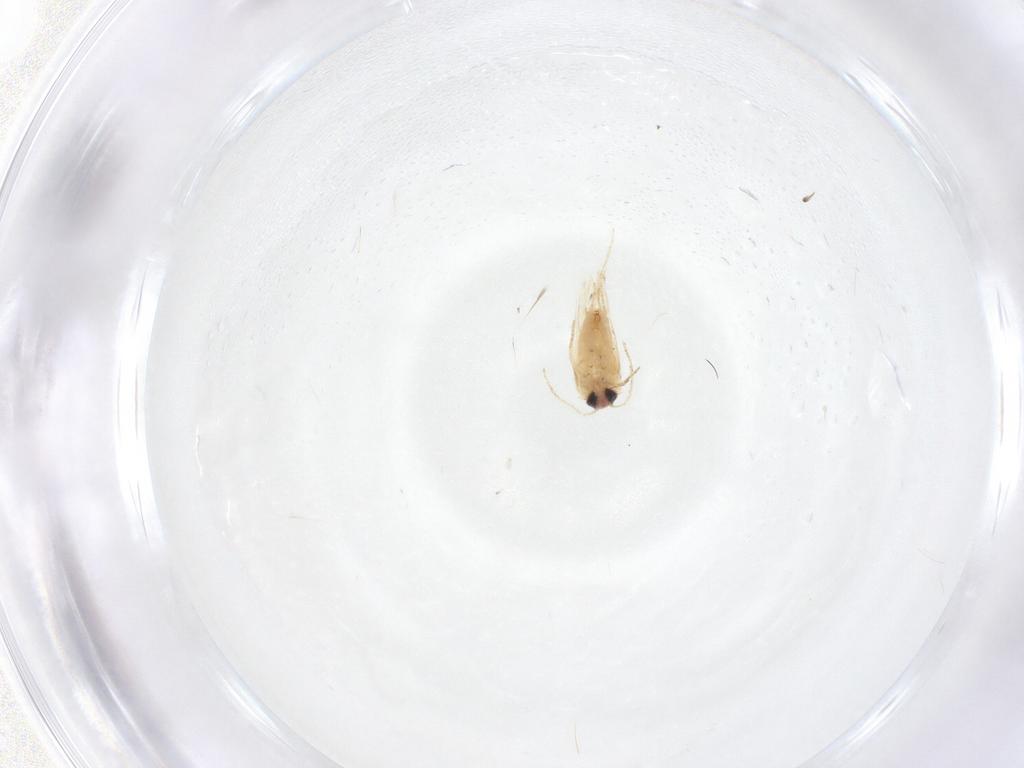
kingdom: Animalia
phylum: Arthropoda
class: Insecta
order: Lepidoptera
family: Crambidae
